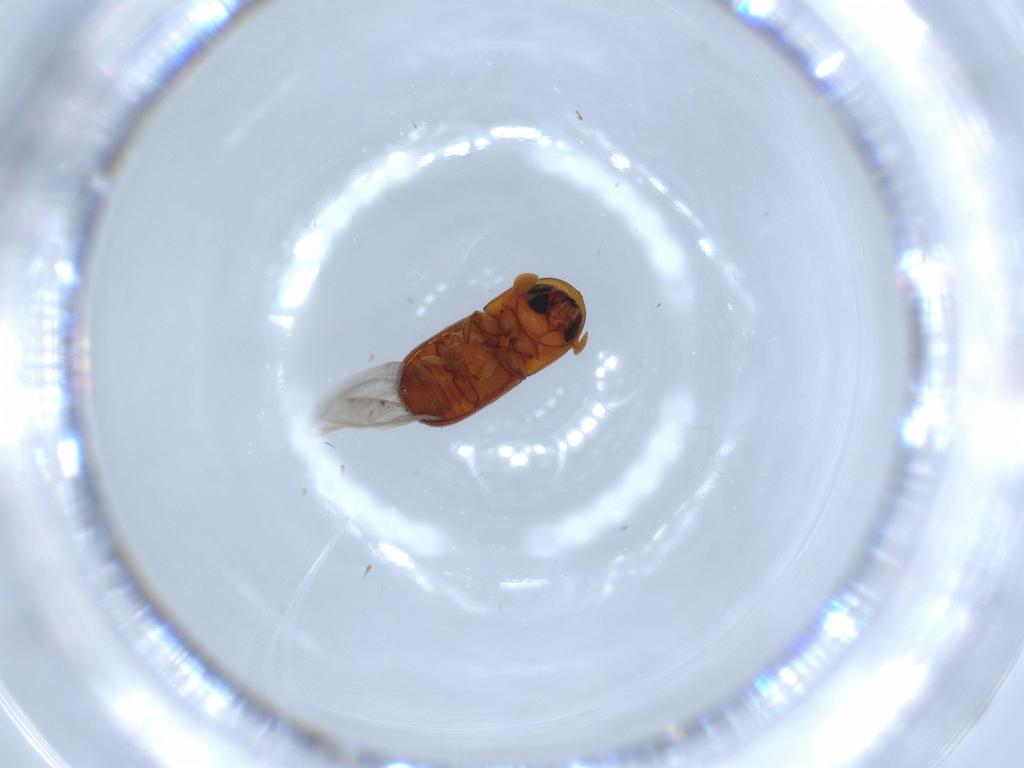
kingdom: Animalia
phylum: Arthropoda
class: Insecta
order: Coleoptera
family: Curculionidae
